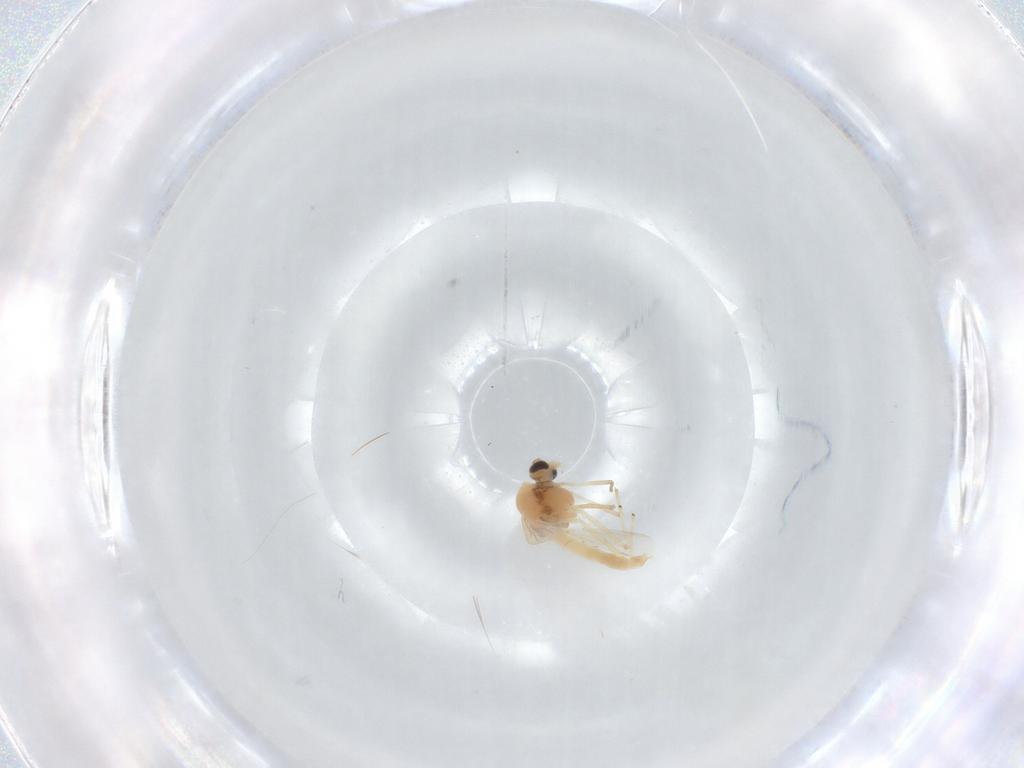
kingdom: Animalia
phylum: Arthropoda
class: Insecta
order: Diptera
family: Chironomidae
